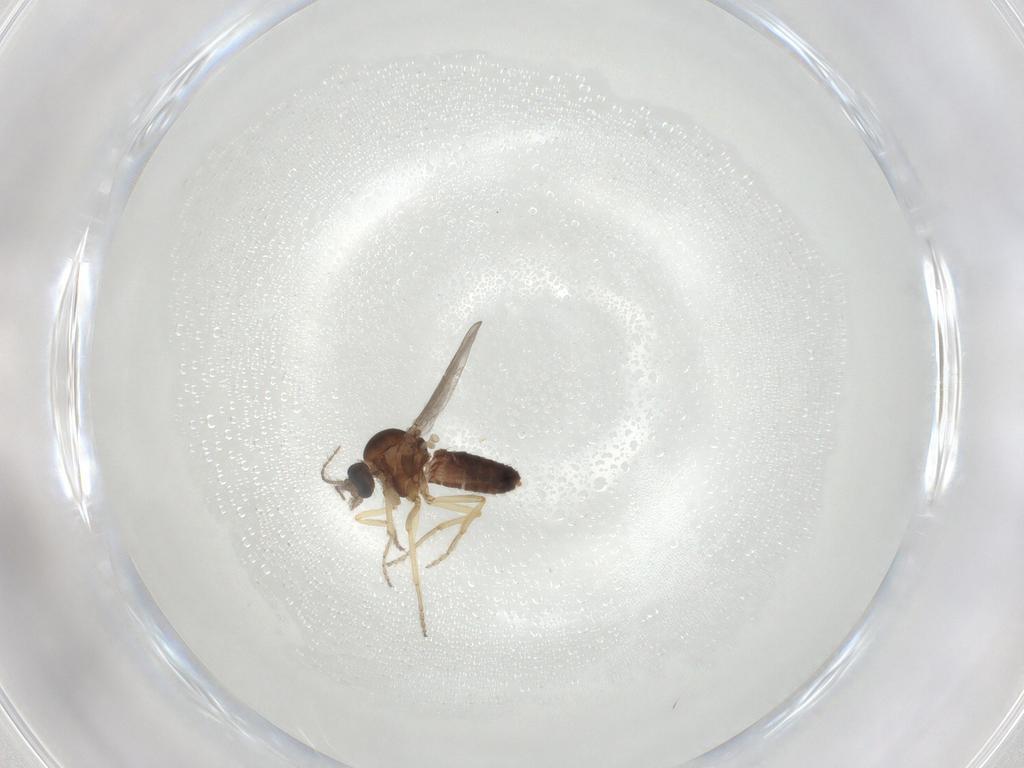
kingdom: Animalia
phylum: Arthropoda
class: Insecta
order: Diptera
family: Ceratopogonidae
